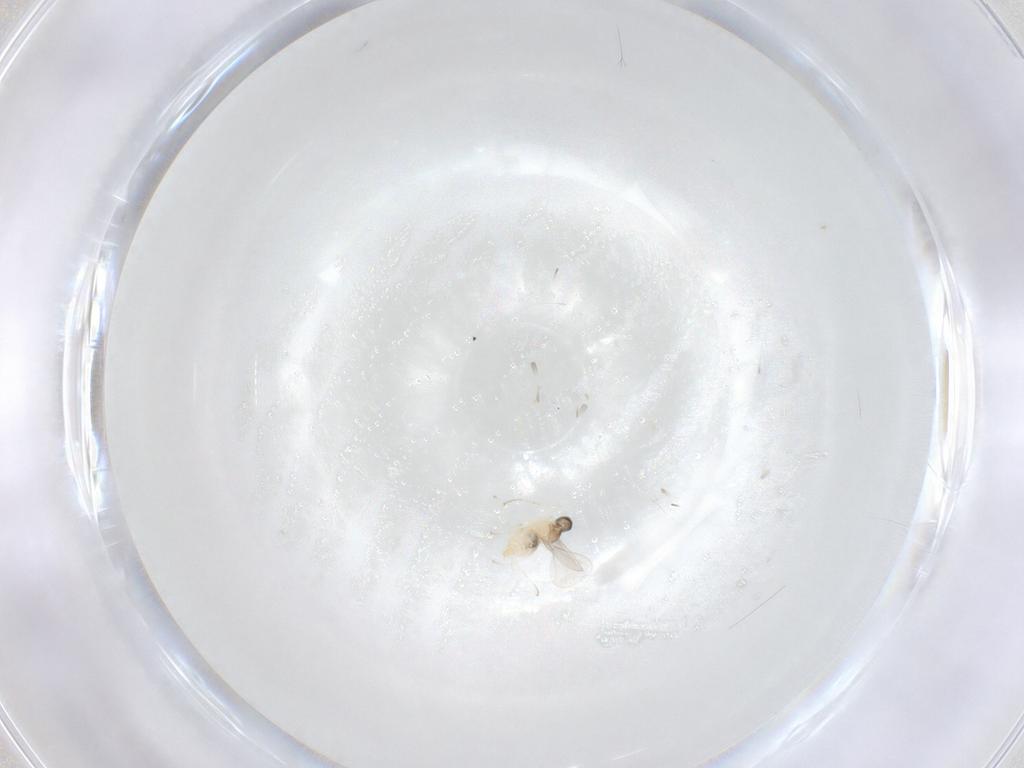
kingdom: Animalia
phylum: Arthropoda
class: Insecta
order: Diptera
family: Cecidomyiidae
